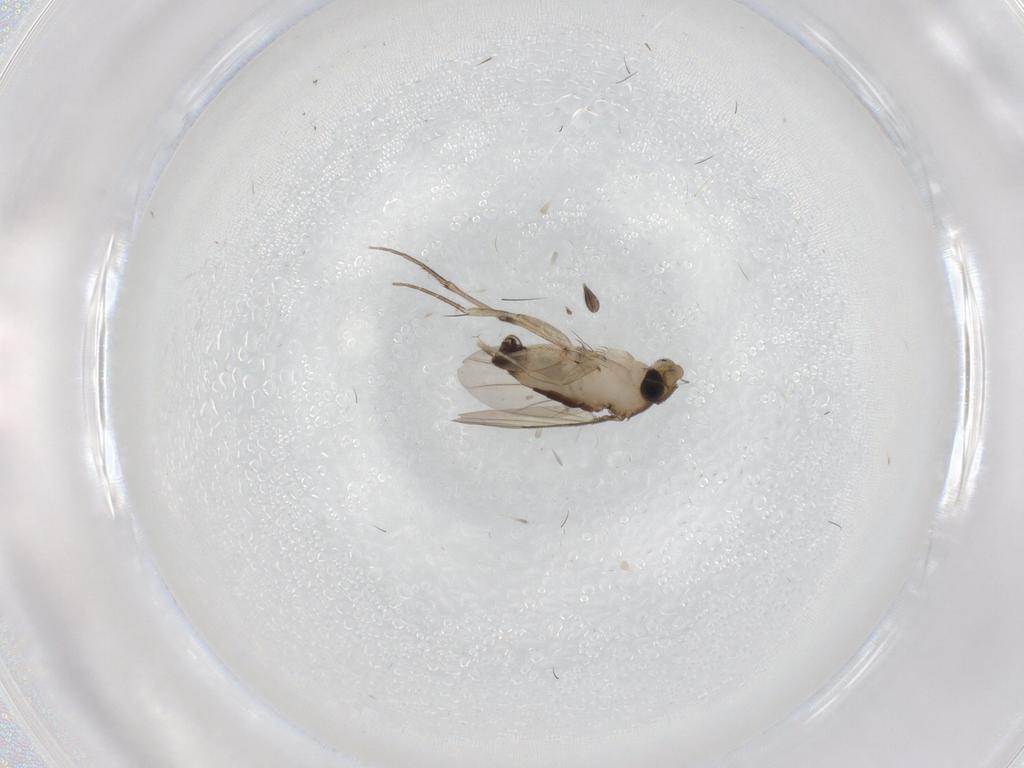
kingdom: Animalia
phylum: Arthropoda
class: Insecta
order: Diptera
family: Phoridae
